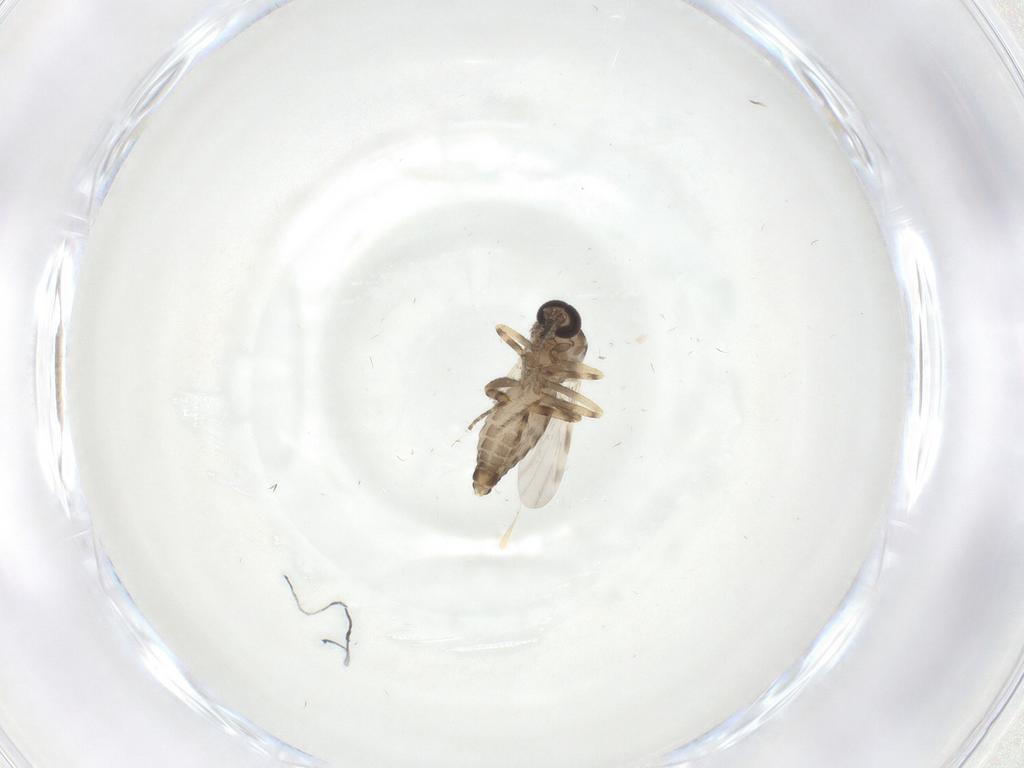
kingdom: Animalia
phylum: Arthropoda
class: Insecta
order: Diptera
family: Ceratopogonidae
